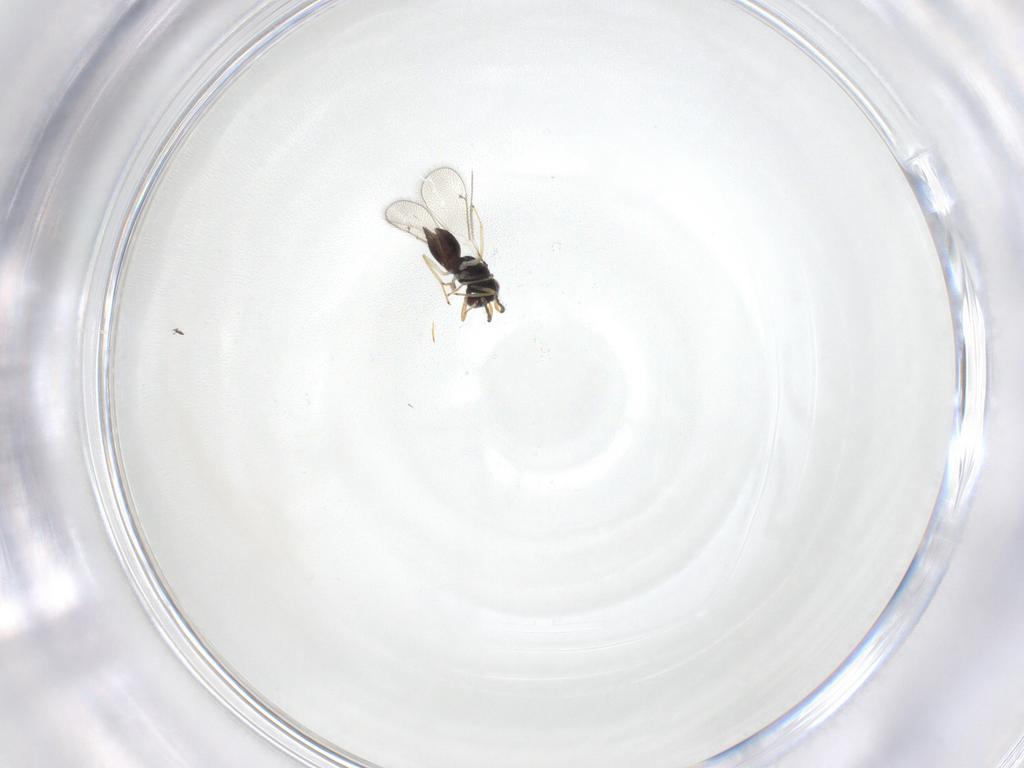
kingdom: Animalia
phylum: Arthropoda
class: Insecta
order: Hymenoptera
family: Eulophidae
